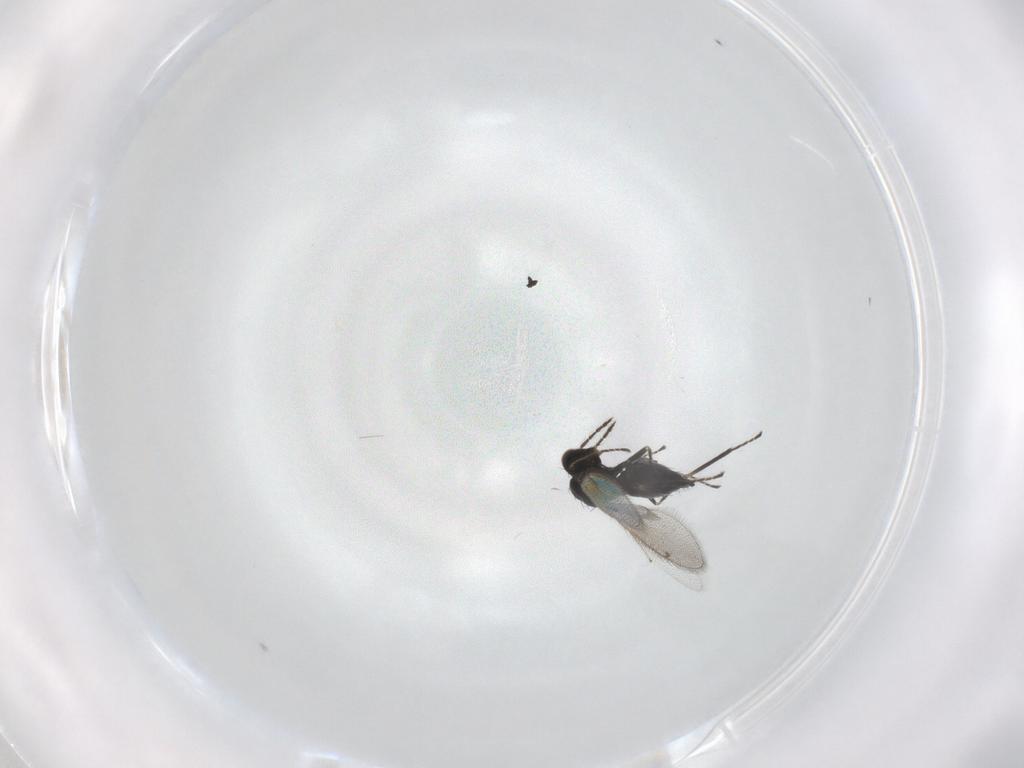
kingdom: Animalia
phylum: Arthropoda
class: Insecta
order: Hymenoptera
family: Eulophidae
